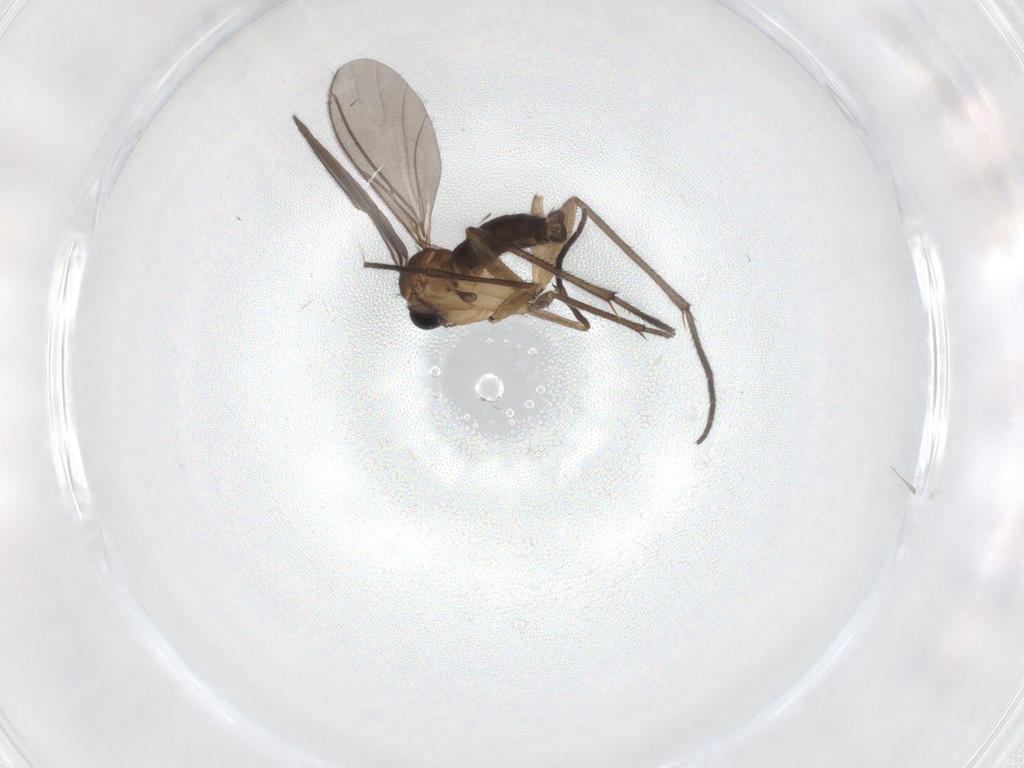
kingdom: Animalia
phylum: Arthropoda
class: Insecta
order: Diptera
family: Sciaridae
